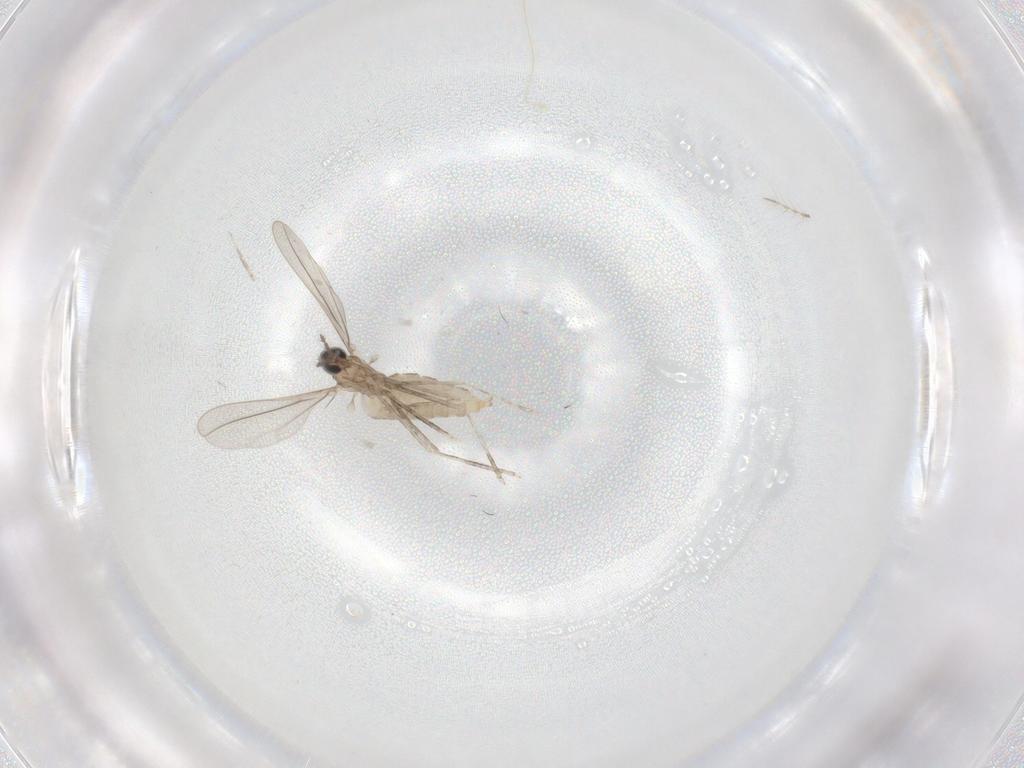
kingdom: Animalia
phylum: Arthropoda
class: Insecta
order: Diptera
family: Cecidomyiidae
